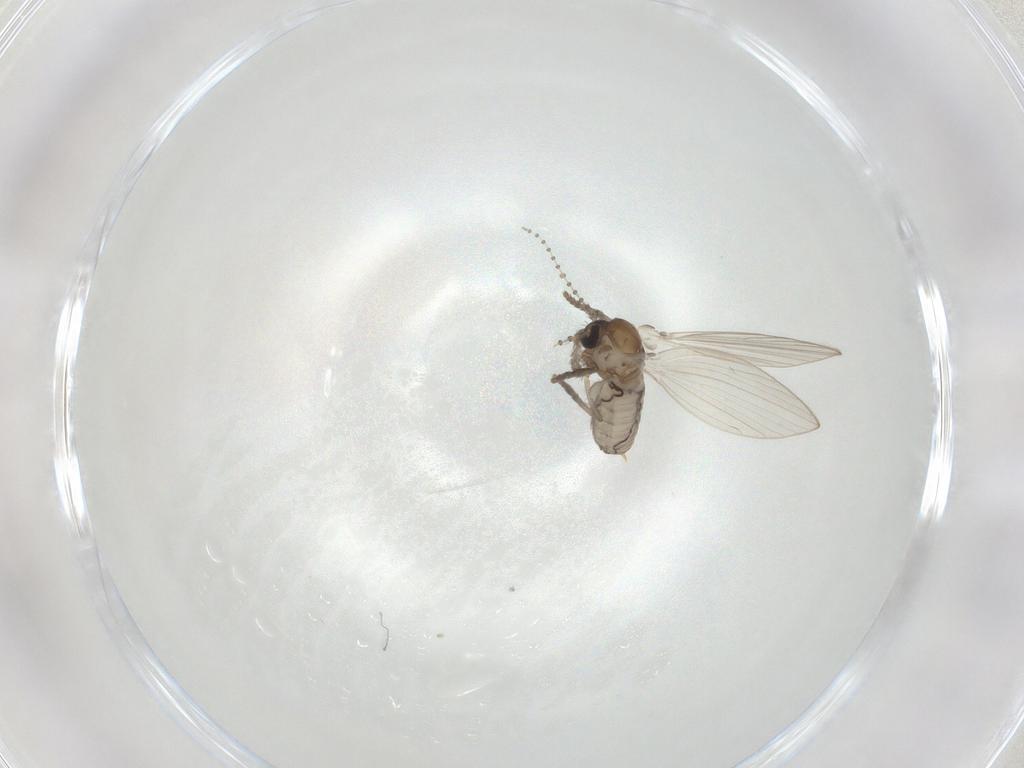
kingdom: Animalia
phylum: Arthropoda
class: Insecta
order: Diptera
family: Psychodidae
